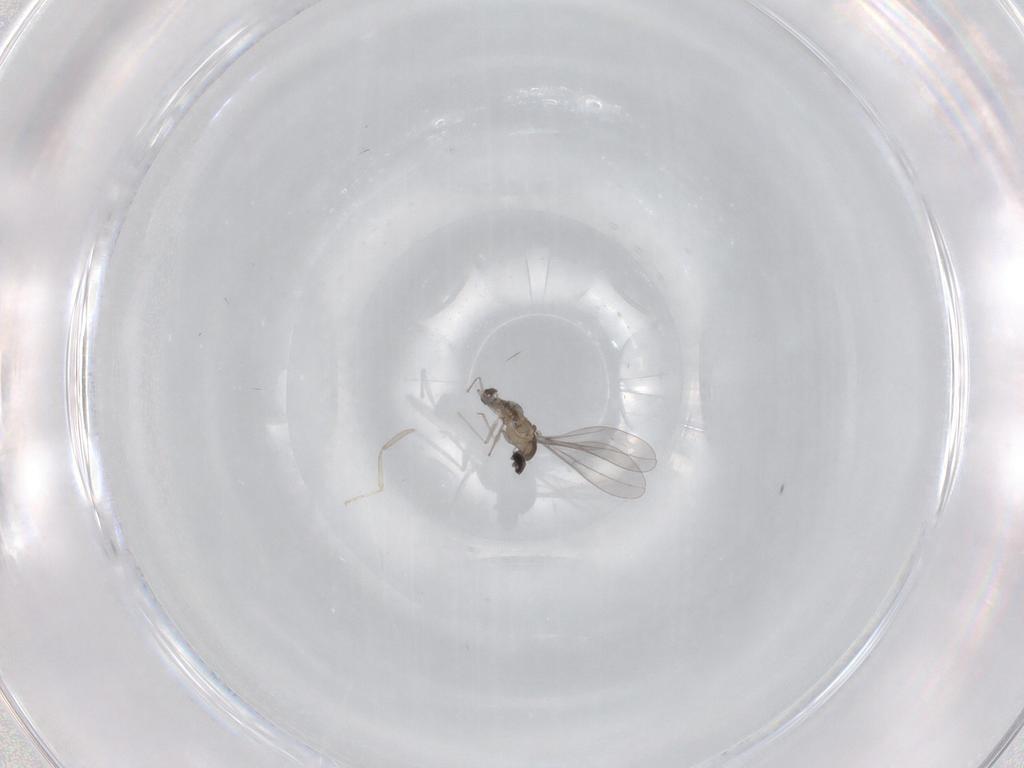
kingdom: Animalia
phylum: Arthropoda
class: Insecta
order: Diptera
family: Cecidomyiidae
